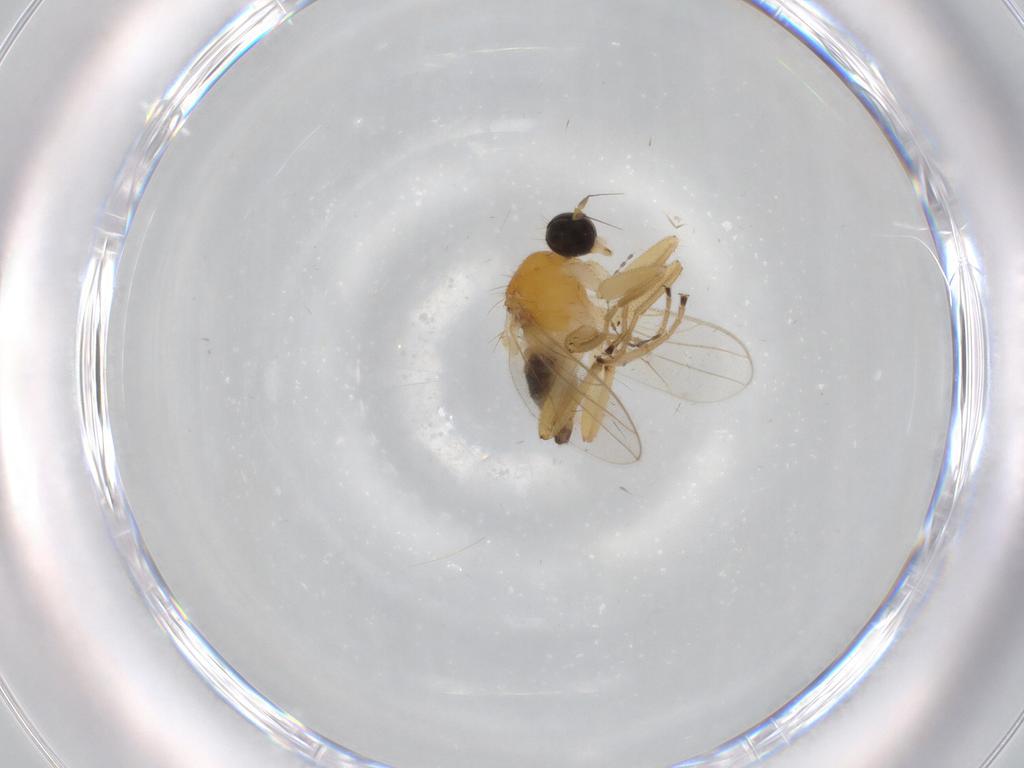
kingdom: Animalia
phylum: Arthropoda
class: Insecta
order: Diptera
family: Hybotidae
